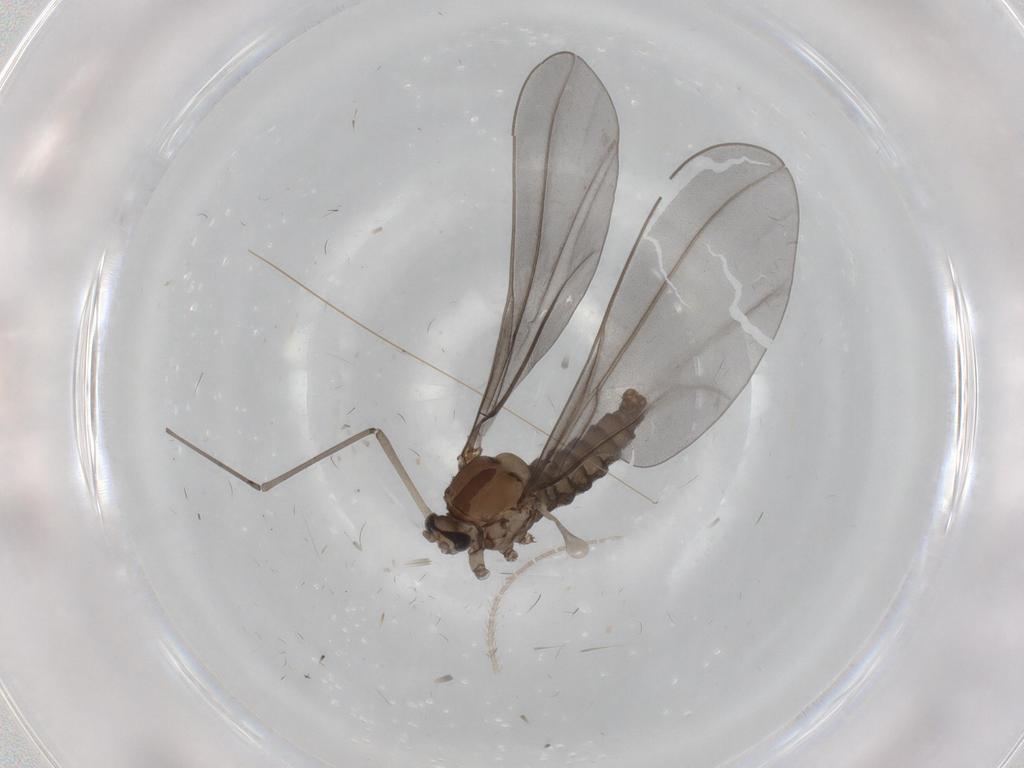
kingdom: Animalia
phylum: Arthropoda
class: Insecta
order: Diptera
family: Cecidomyiidae
